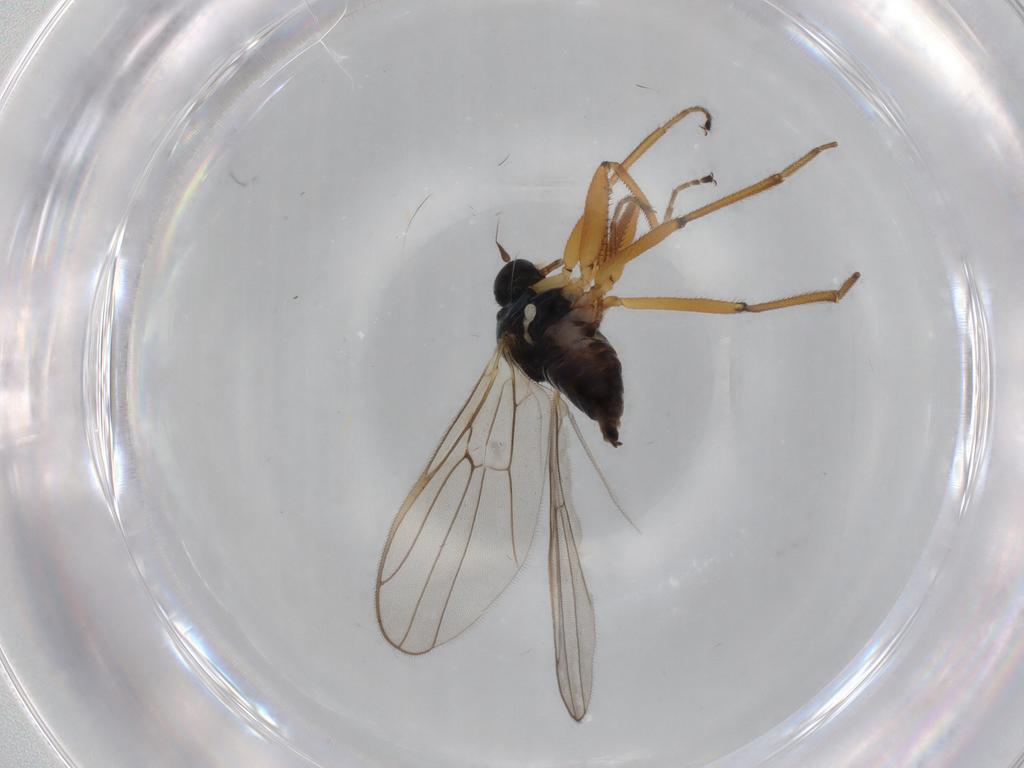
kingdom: Animalia
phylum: Arthropoda
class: Insecta
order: Diptera
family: Hybotidae
